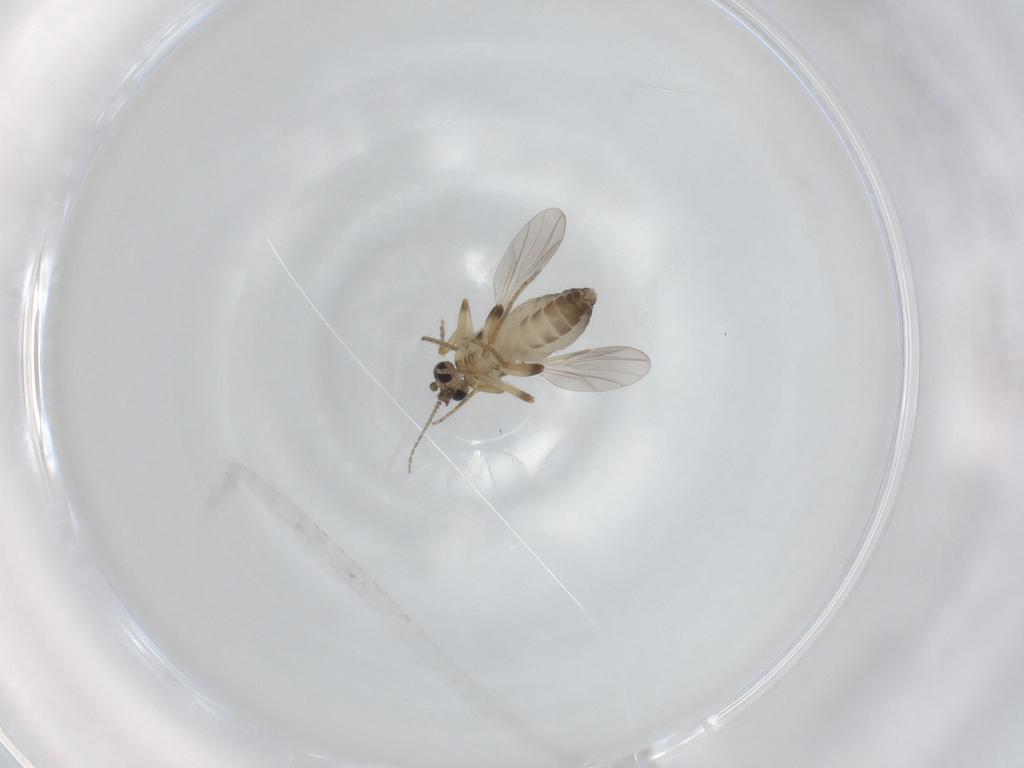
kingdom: Animalia
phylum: Arthropoda
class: Insecta
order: Diptera
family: Ceratopogonidae
